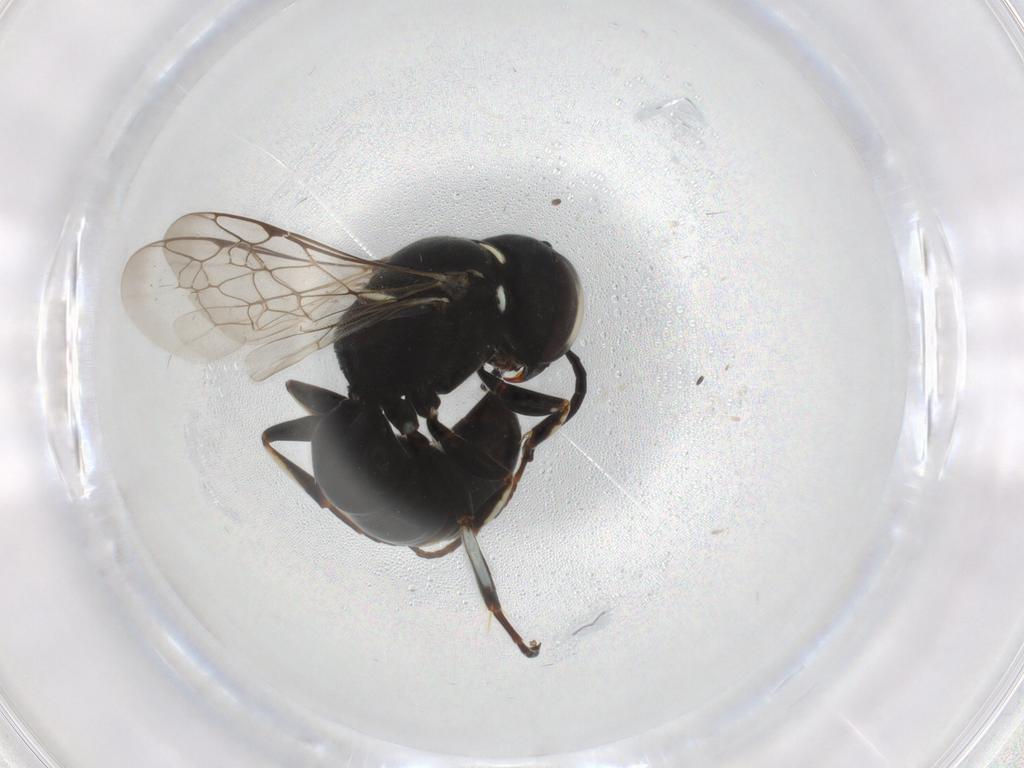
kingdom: Animalia
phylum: Arthropoda
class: Insecta
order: Hymenoptera
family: Crabronidae
